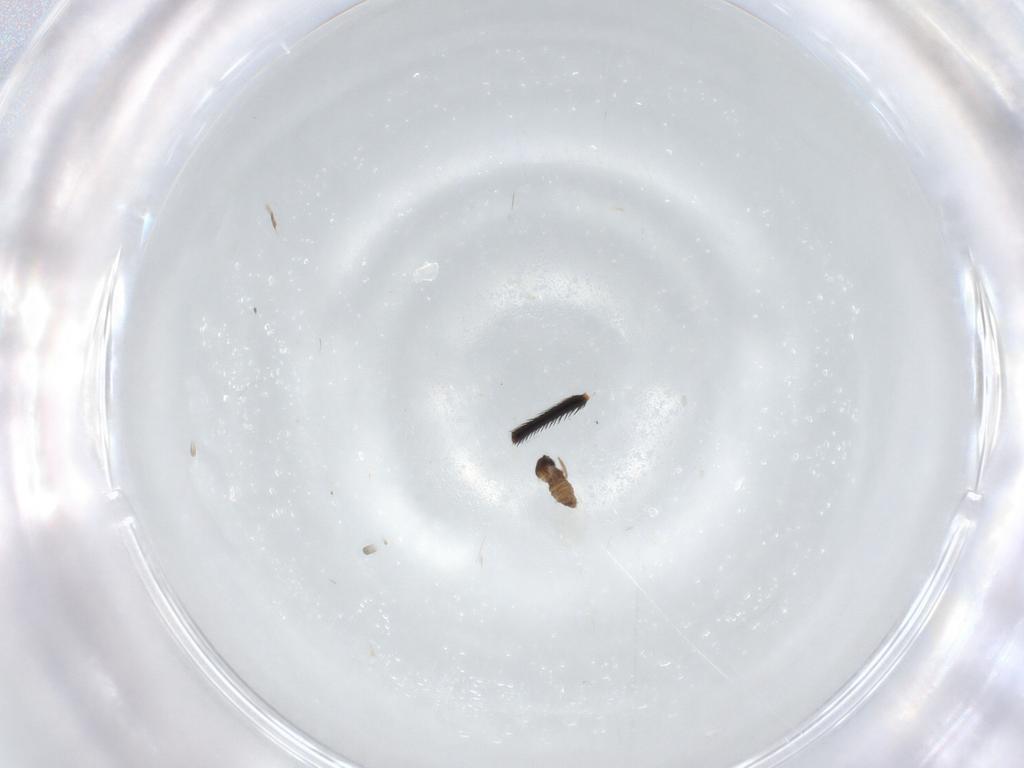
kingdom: Animalia
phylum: Arthropoda
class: Insecta
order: Diptera
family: Cecidomyiidae
